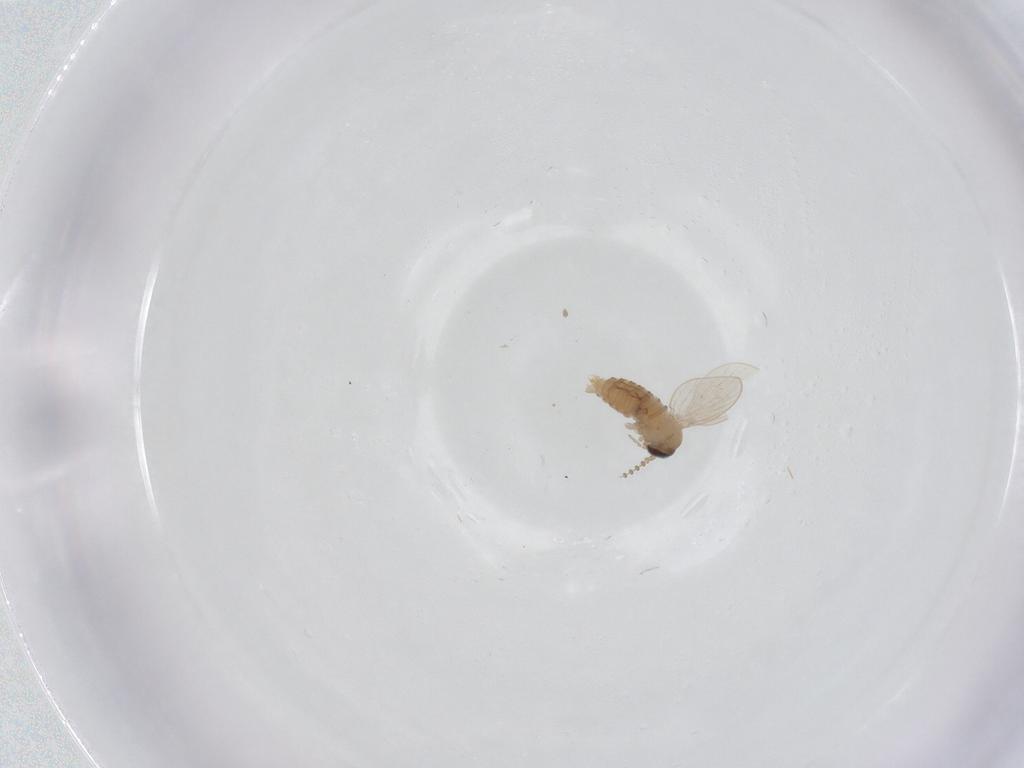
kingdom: Animalia
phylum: Arthropoda
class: Insecta
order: Diptera
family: Psychodidae
